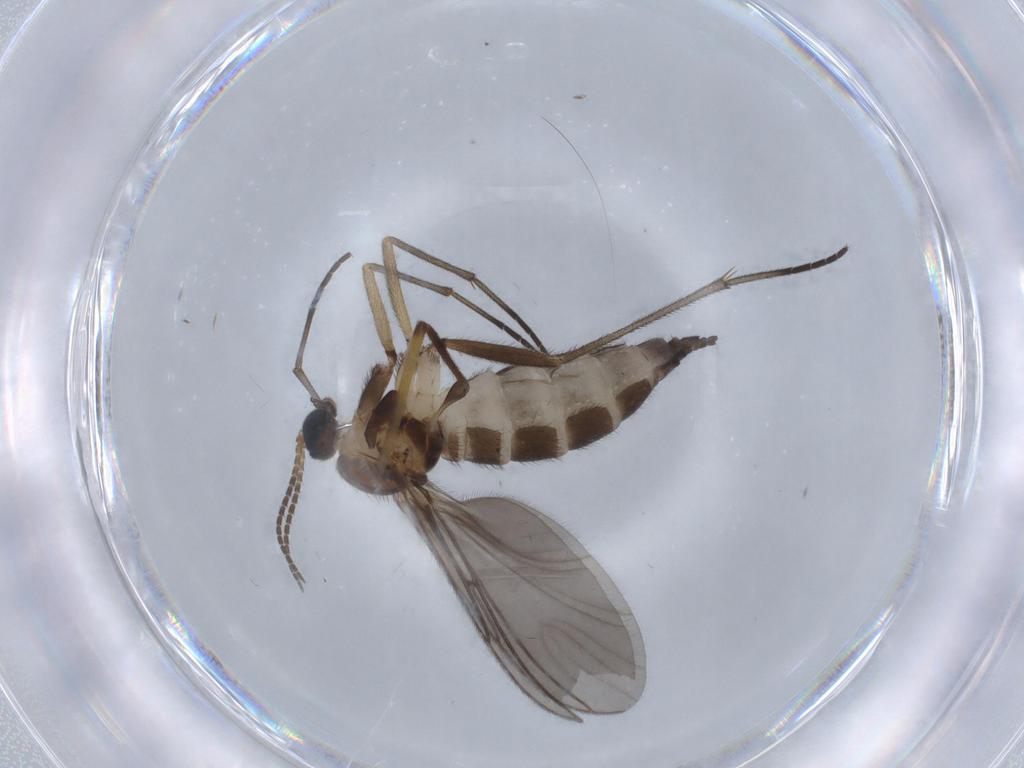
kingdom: Animalia
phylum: Arthropoda
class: Insecta
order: Diptera
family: Sciaridae
